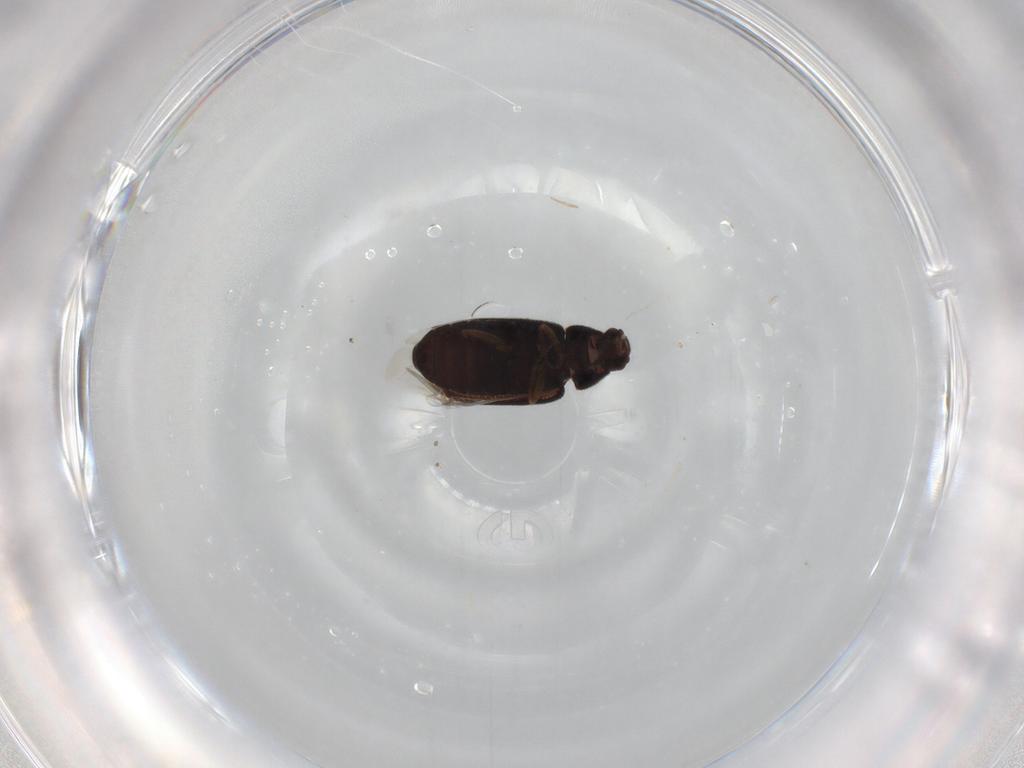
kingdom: Animalia
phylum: Arthropoda
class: Insecta
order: Coleoptera
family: Rhadalidae
